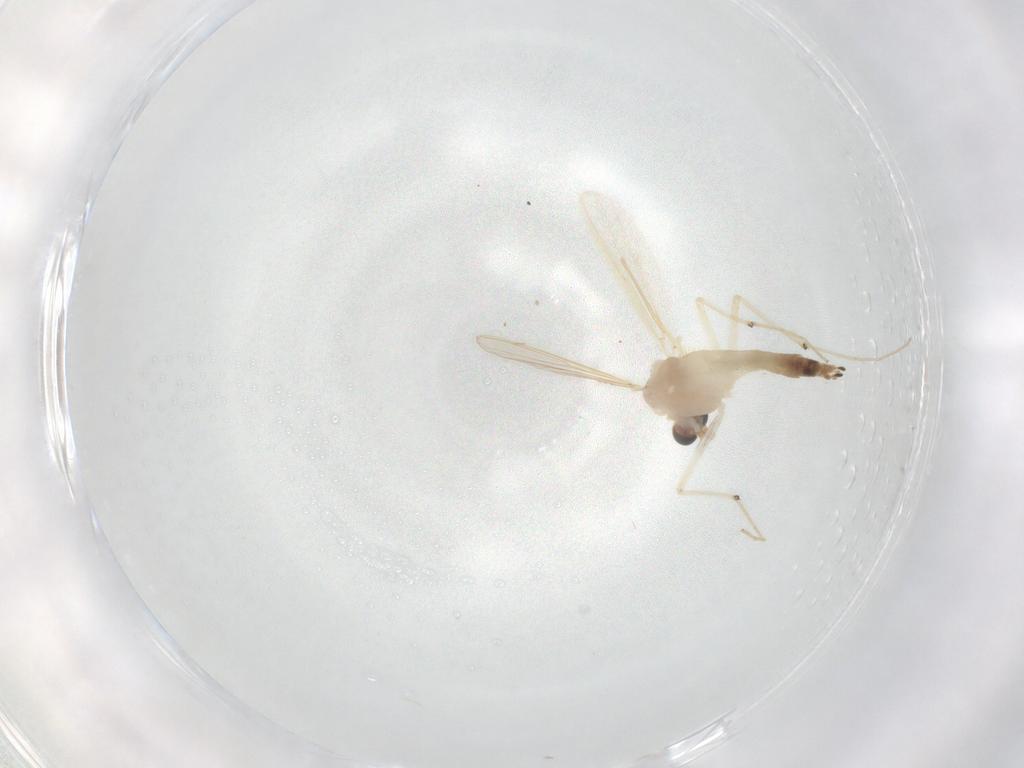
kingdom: Animalia
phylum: Arthropoda
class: Insecta
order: Diptera
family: Chironomidae
